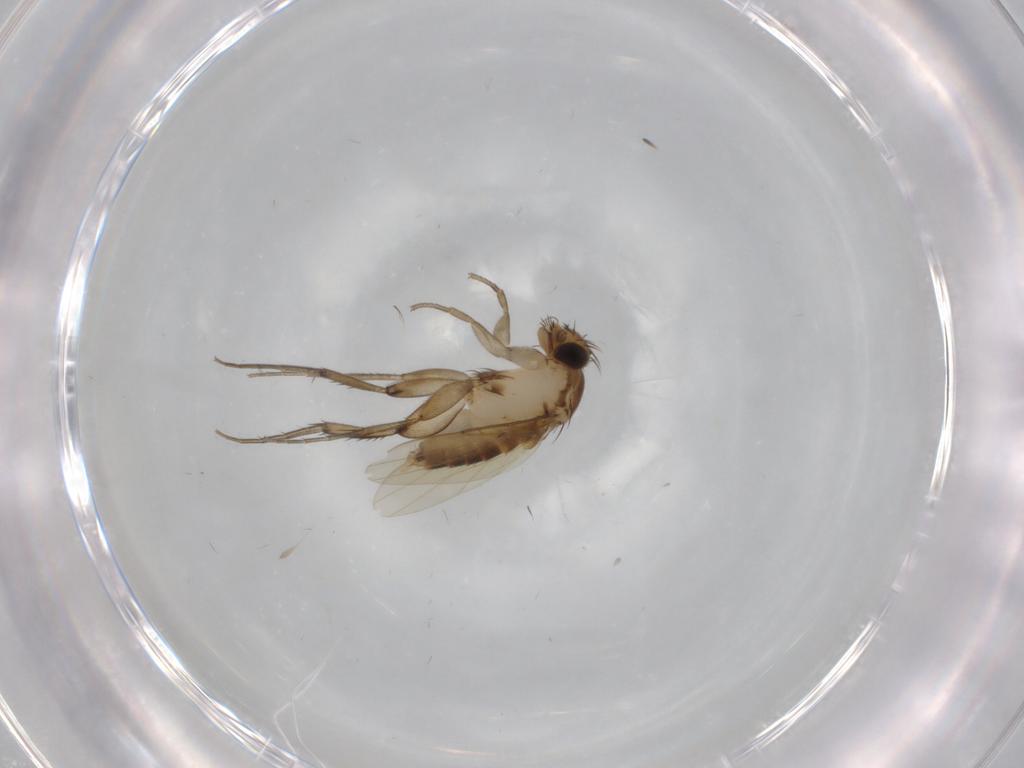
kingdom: Animalia
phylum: Arthropoda
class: Insecta
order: Diptera
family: Phoridae
